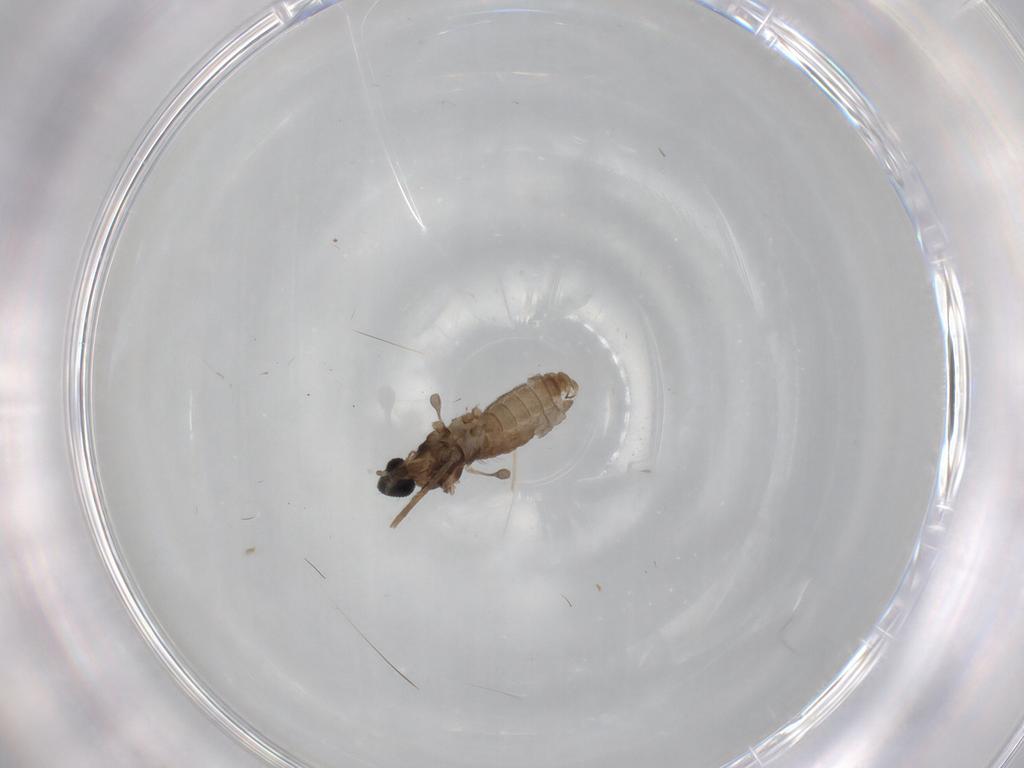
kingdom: Animalia
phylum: Arthropoda
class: Insecta
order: Diptera
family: Cecidomyiidae
